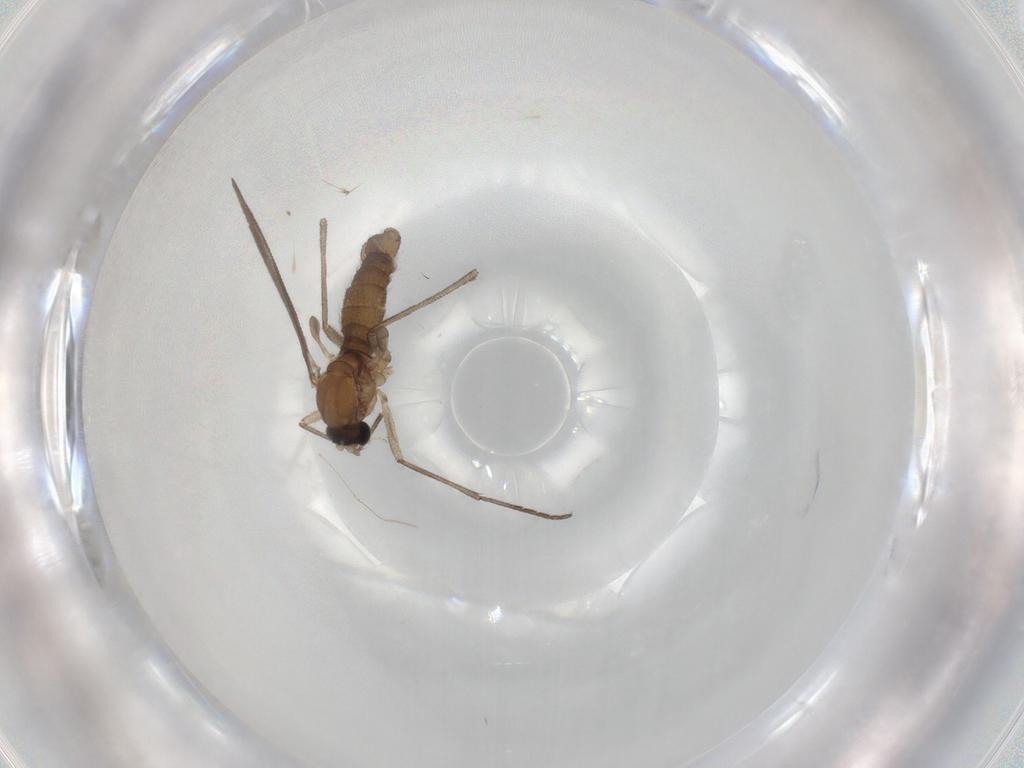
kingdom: Animalia
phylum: Arthropoda
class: Insecta
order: Diptera
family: Sciaridae
